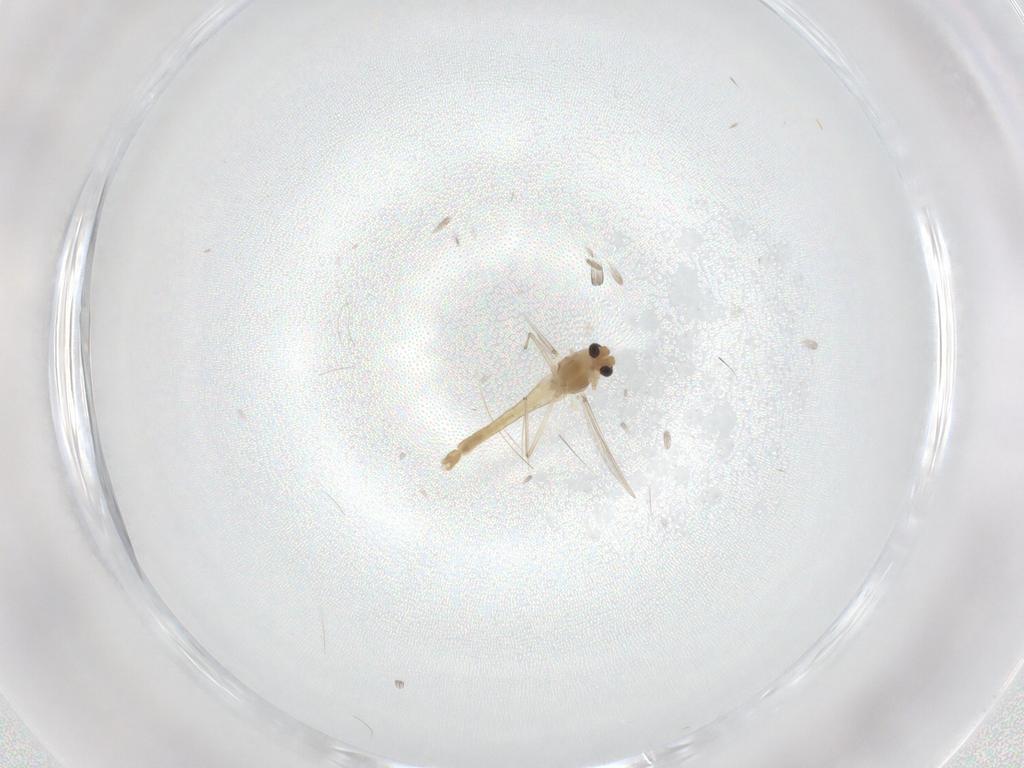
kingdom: Animalia
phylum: Arthropoda
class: Insecta
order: Diptera
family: Chironomidae
